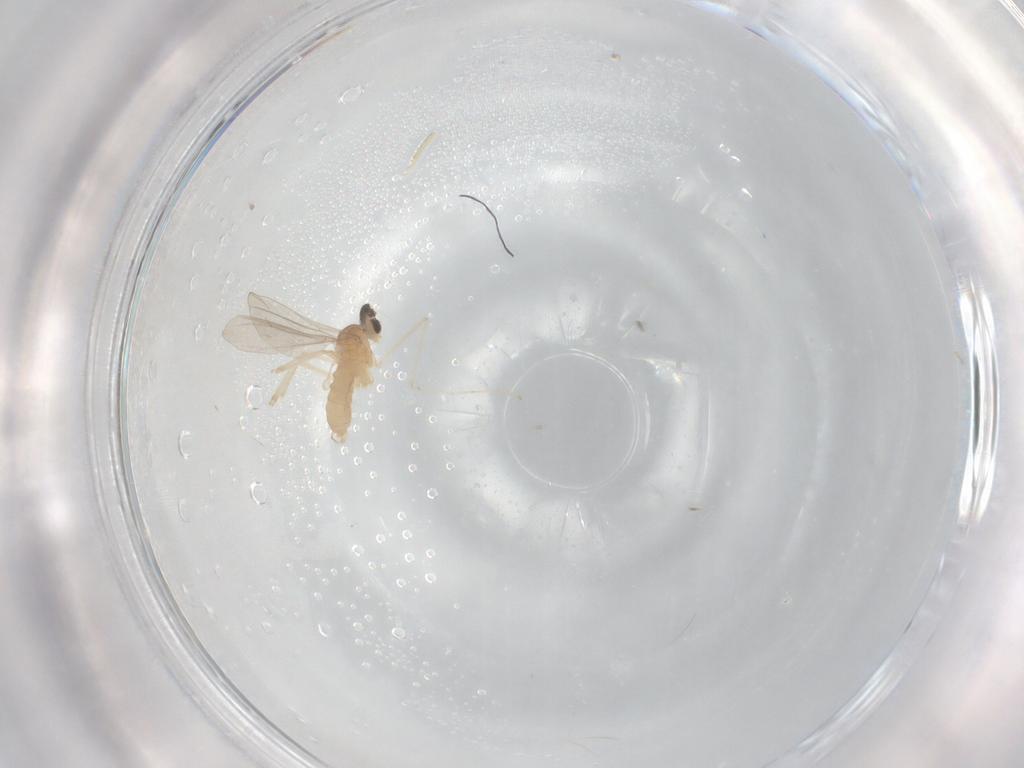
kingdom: Animalia
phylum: Arthropoda
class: Insecta
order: Diptera
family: Cecidomyiidae
